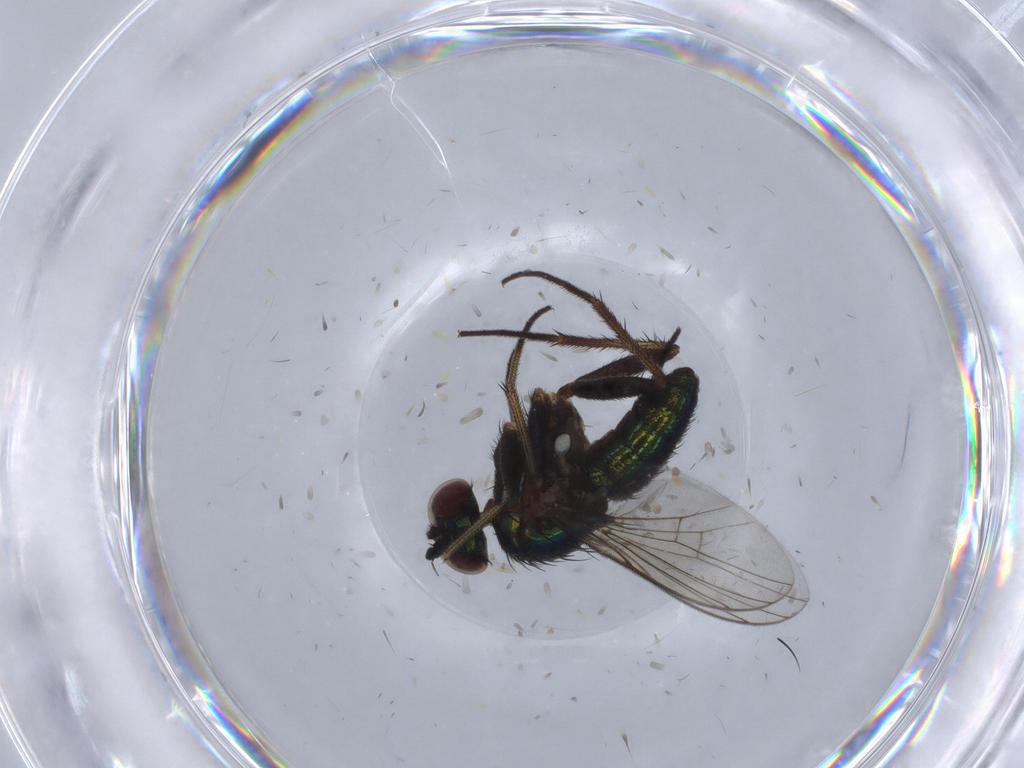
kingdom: Animalia
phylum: Arthropoda
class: Insecta
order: Diptera
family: Dolichopodidae
